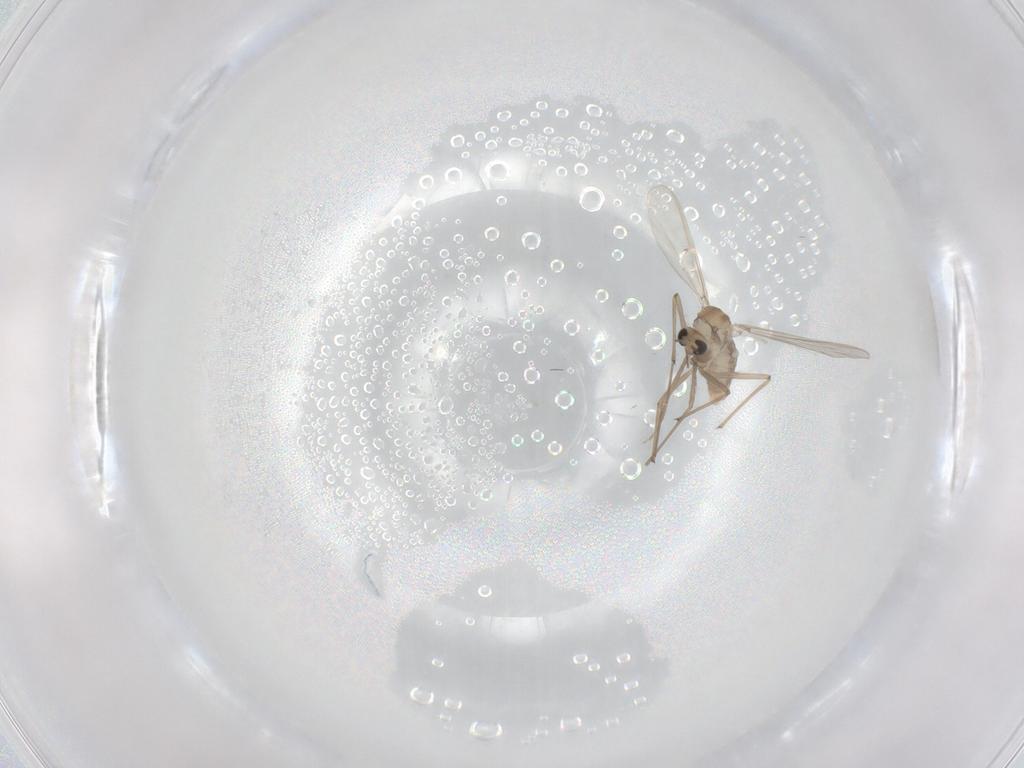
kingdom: Animalia
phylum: Arthropoda
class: Insecta
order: Diptera
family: Chironomidae
